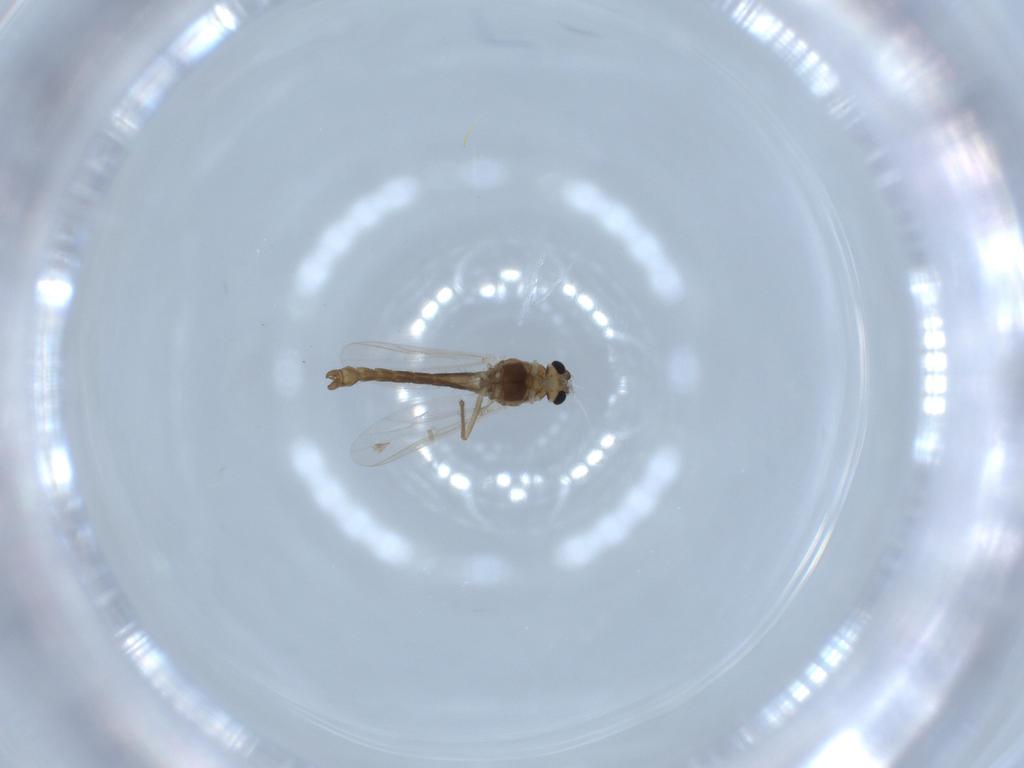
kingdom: Animalia
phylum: Arthropoda
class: Insecta
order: Diptera
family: Chironomidae
